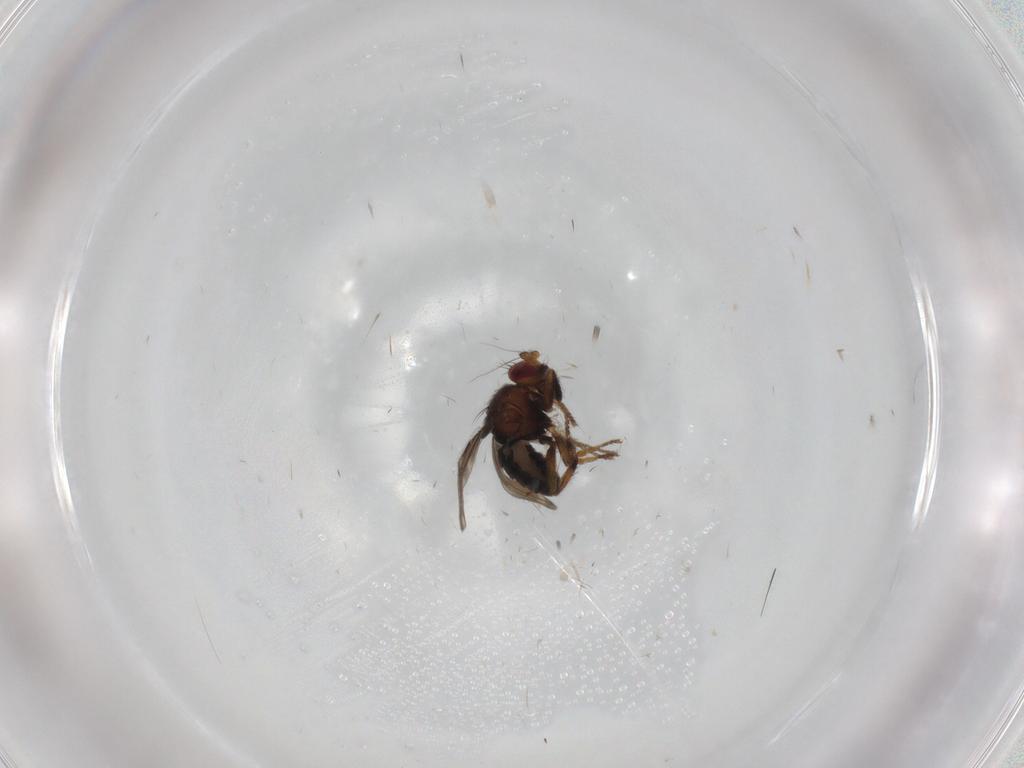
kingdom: Animalia
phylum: Arthropoda
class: Insecta
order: Diptera
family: Sphaeroceridae
